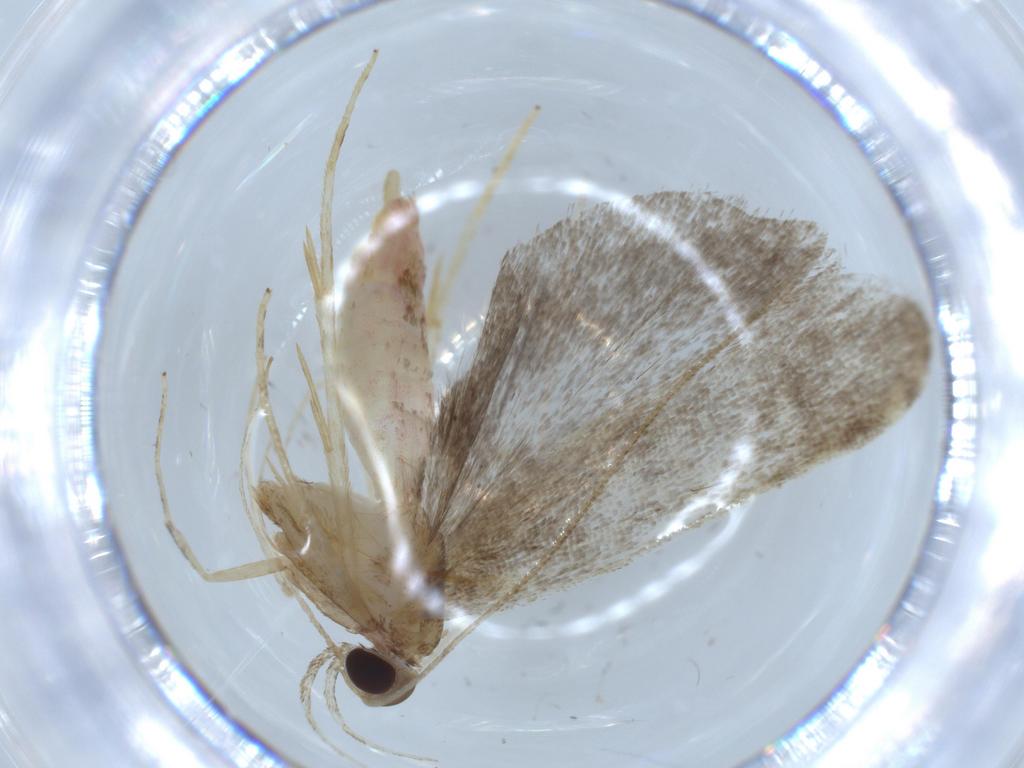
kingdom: Animalia
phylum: Arthropoda
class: Insecta
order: Lepidoptera
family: Autostichidae
